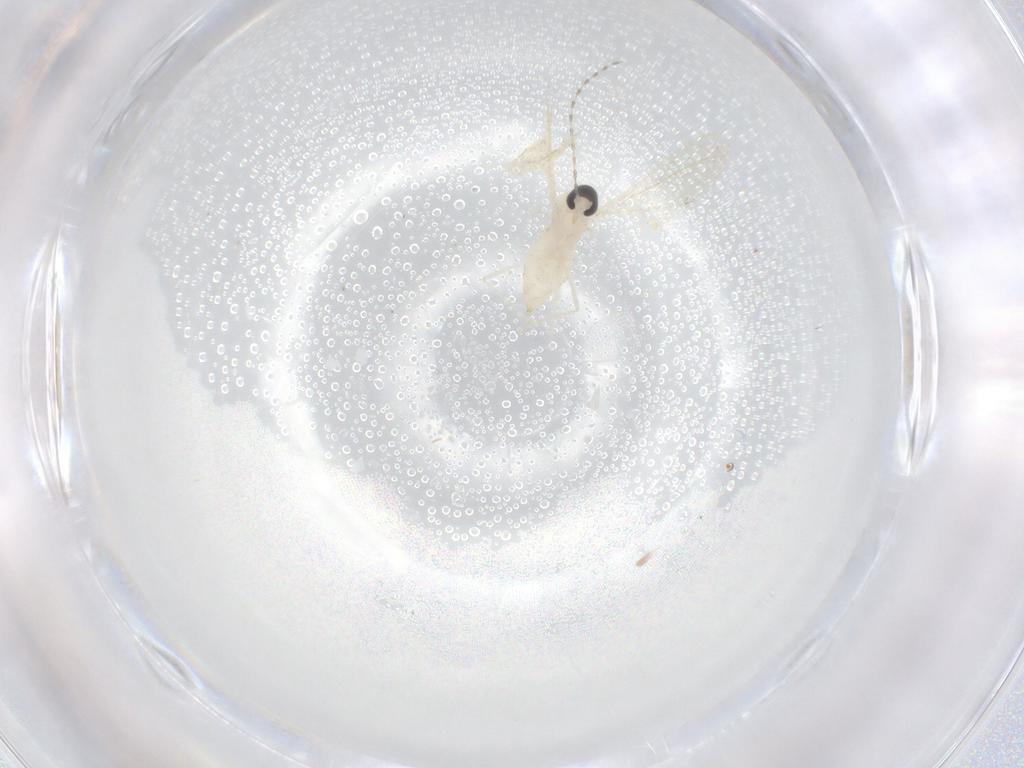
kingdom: Animalia
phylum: Arthropoda
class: Insecta
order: Diptera
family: Cecidomyiidae
